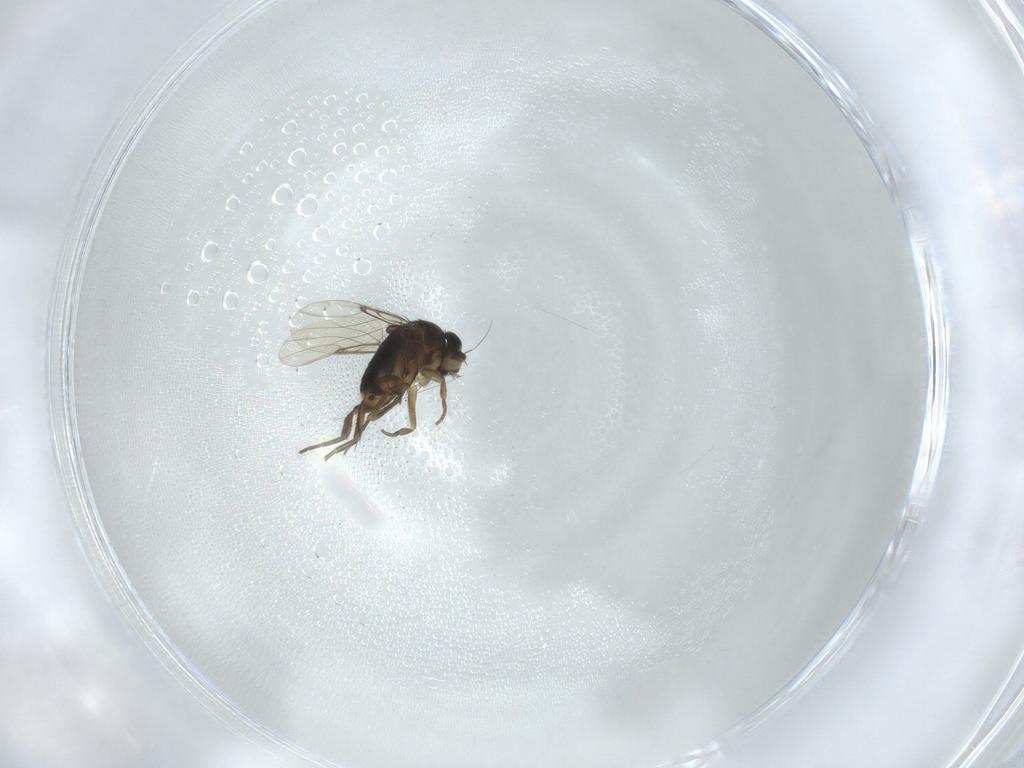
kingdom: Animalia
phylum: Arthropoda
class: Insecta
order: Diptera
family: Phoridae
